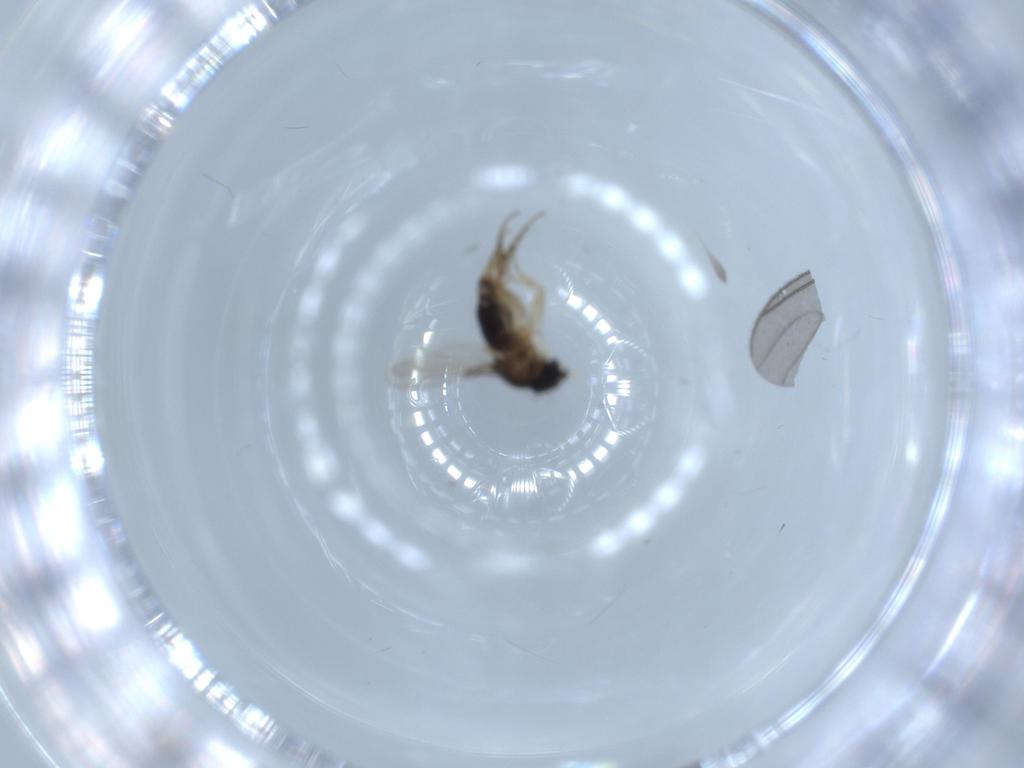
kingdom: Animalia
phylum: Arthropoda
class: Insecta
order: Diptera
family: Phoridae
